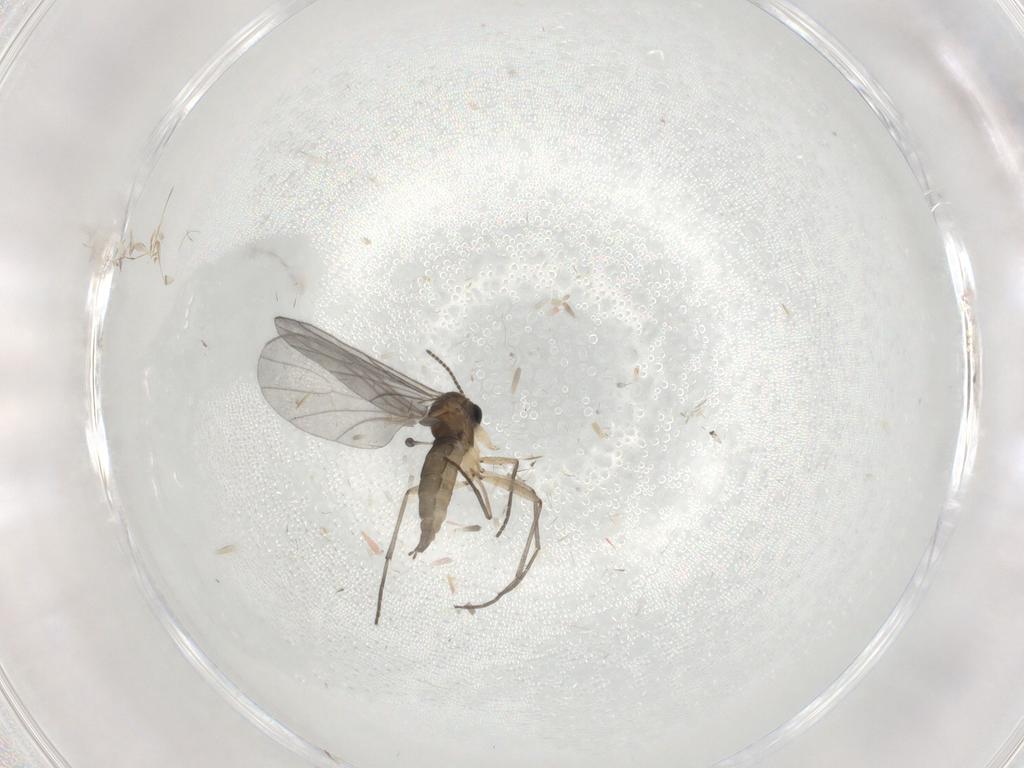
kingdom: Animalia
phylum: Arthropoda
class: Insecta
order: Diptera
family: Sciaridae
